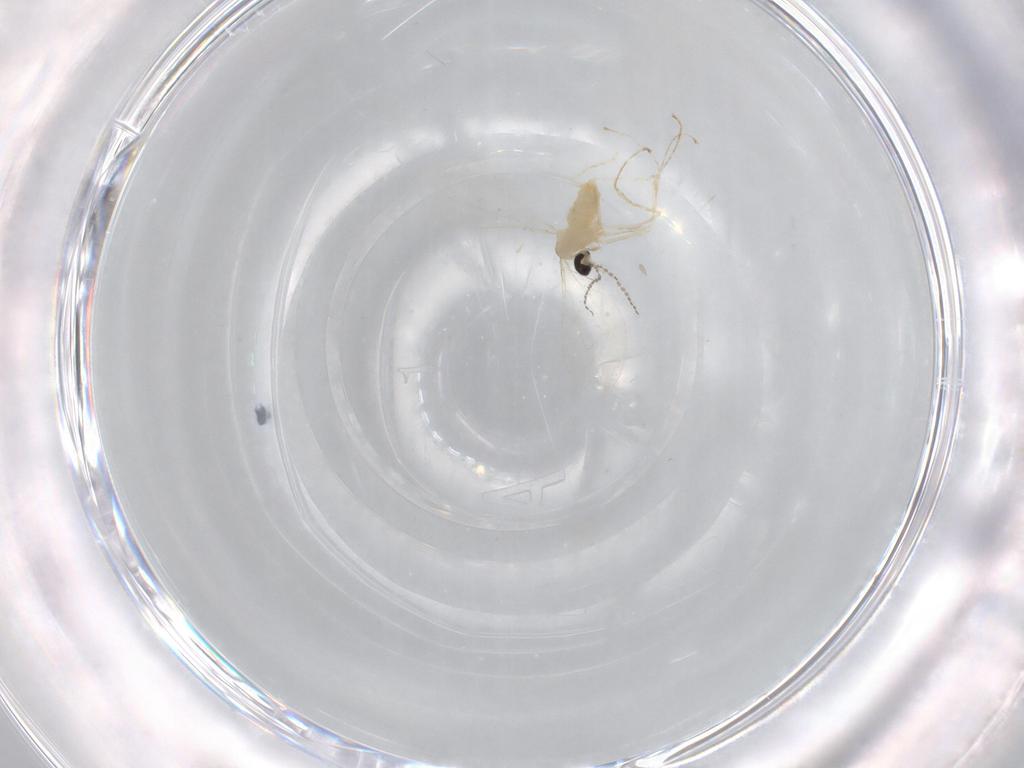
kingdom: Animalia
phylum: Arthropoda
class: Insecta
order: Diptera
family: Cecidomyiidae
